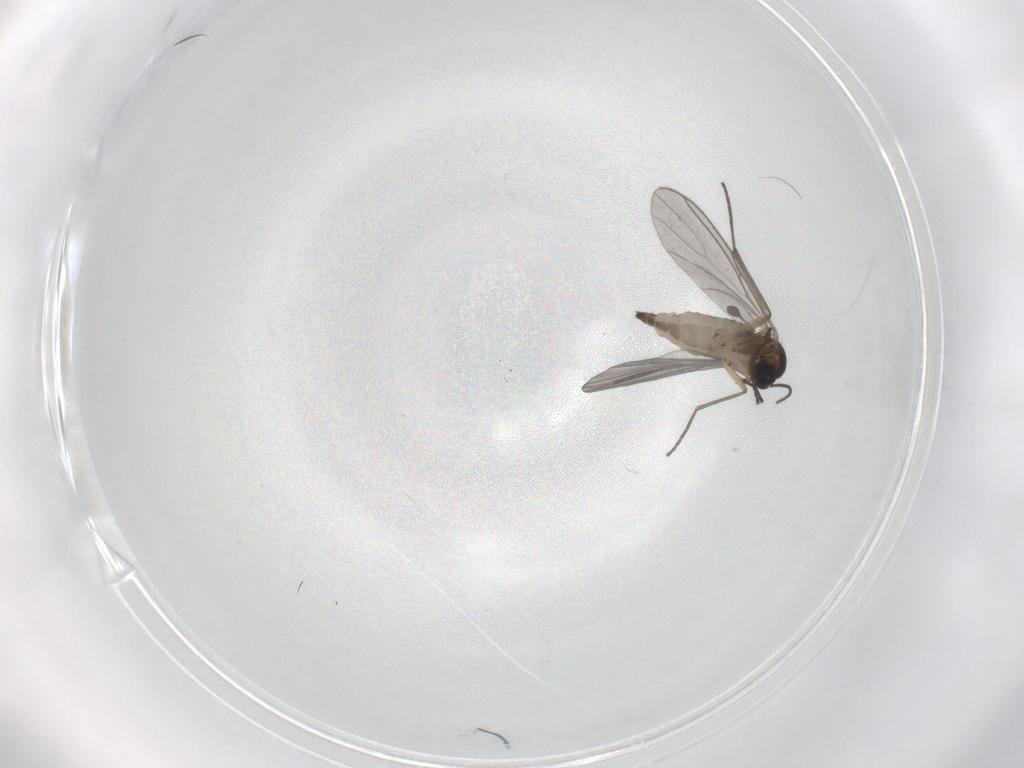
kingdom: Animalia
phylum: Arthropoda
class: Insecta
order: Diptera
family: Sciaridae
